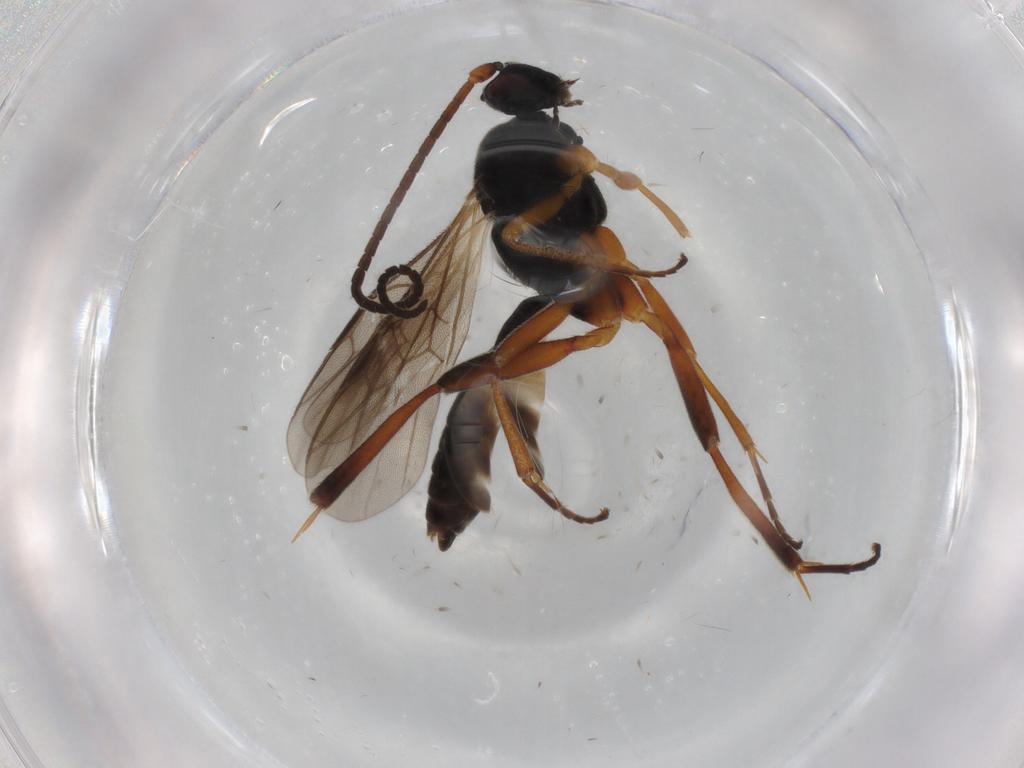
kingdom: Animalia
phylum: Arthropoda
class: Insecta
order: Hymenoptera
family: Braconidae
